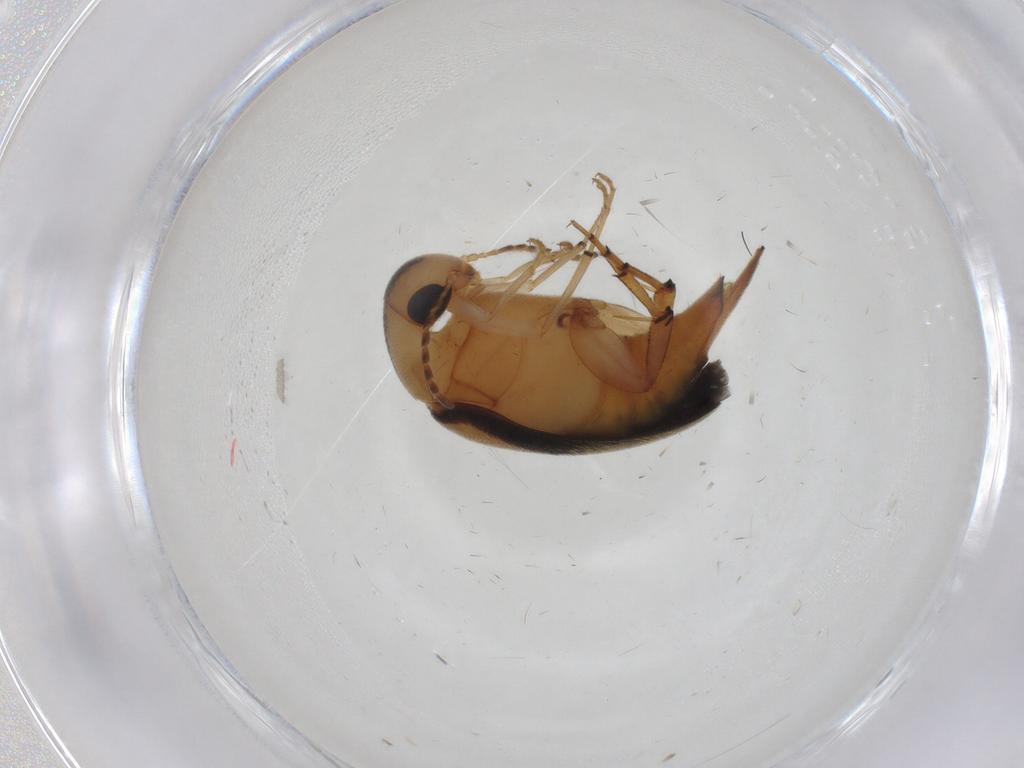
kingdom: Animalia
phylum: Arthropoda
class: Insecta
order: Coleoptera
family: Mordellidae
